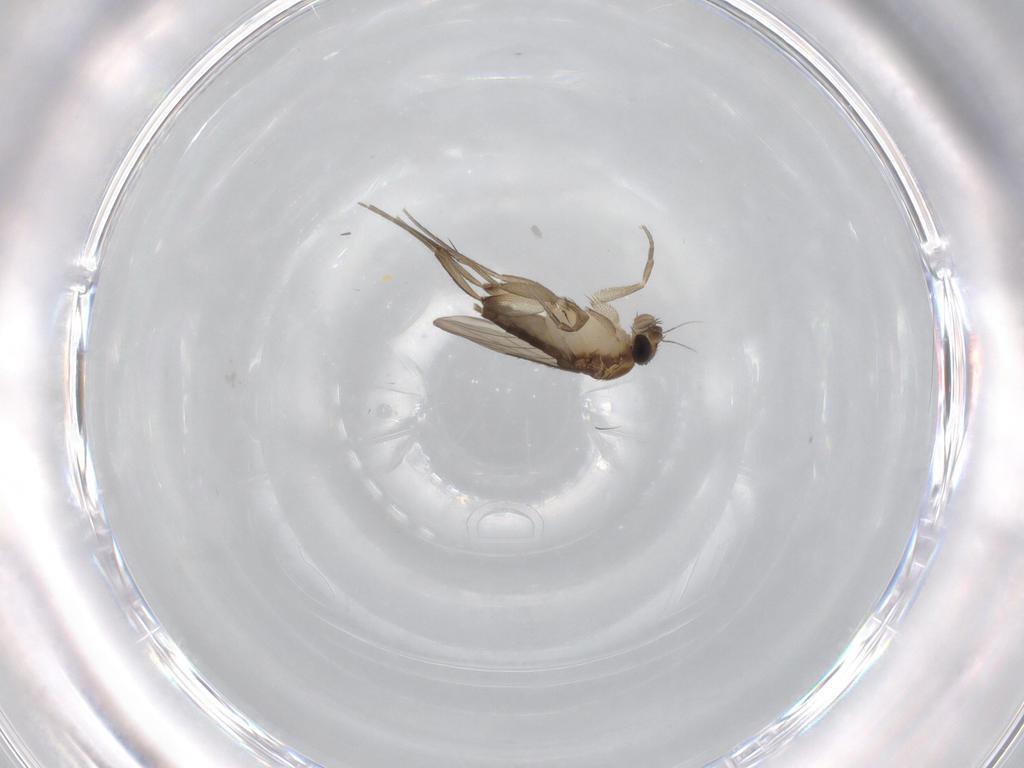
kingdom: Animalia
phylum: Arthropoda
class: Insecta
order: Diptera
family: Phoridae
